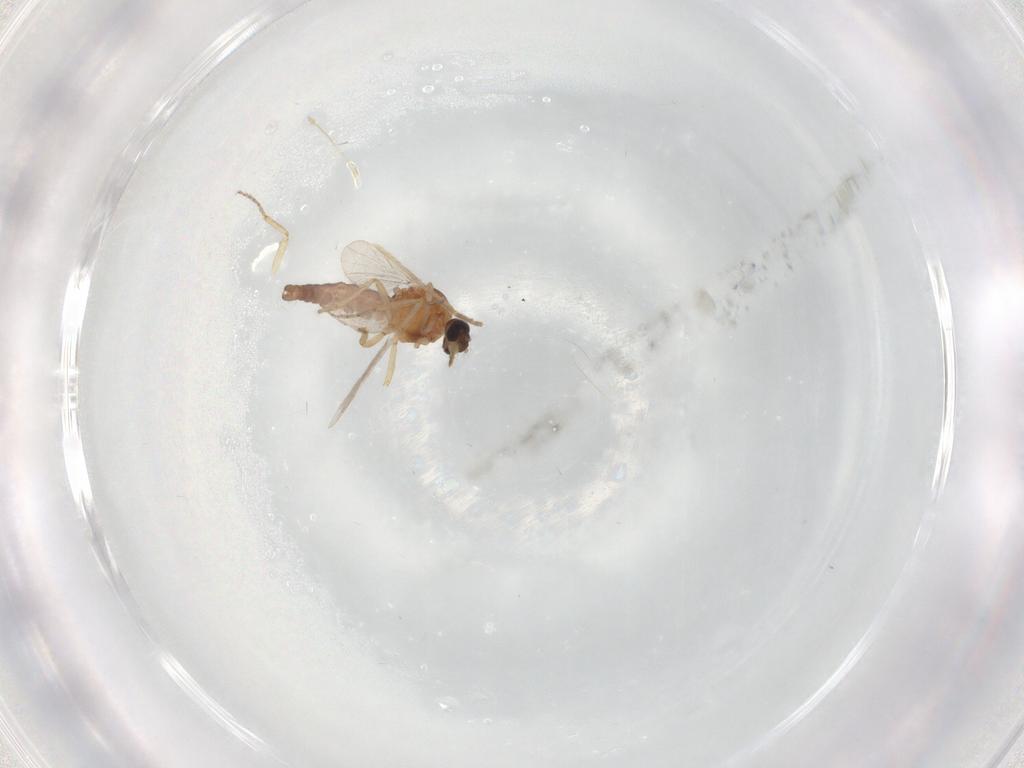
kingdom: Animalia
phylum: Arthropoda
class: Insecta
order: Diptera
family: Ceratopogonidae
